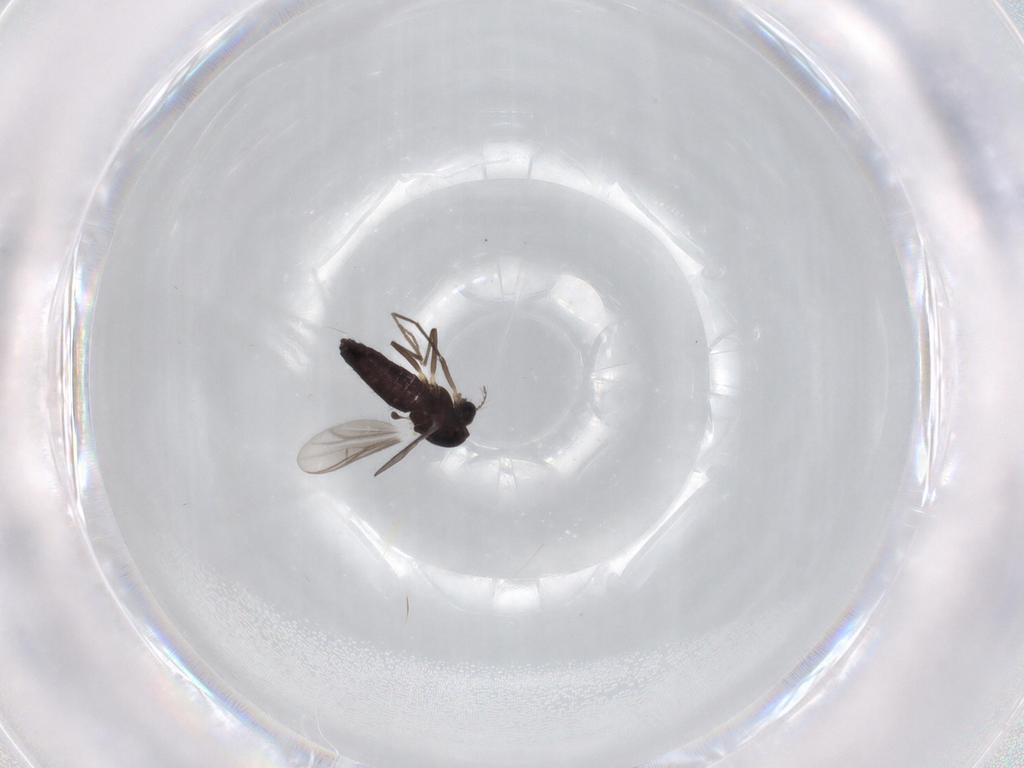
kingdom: Animalia
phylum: Arthropoda
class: Insecta
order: Diptera
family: Chironomidae
